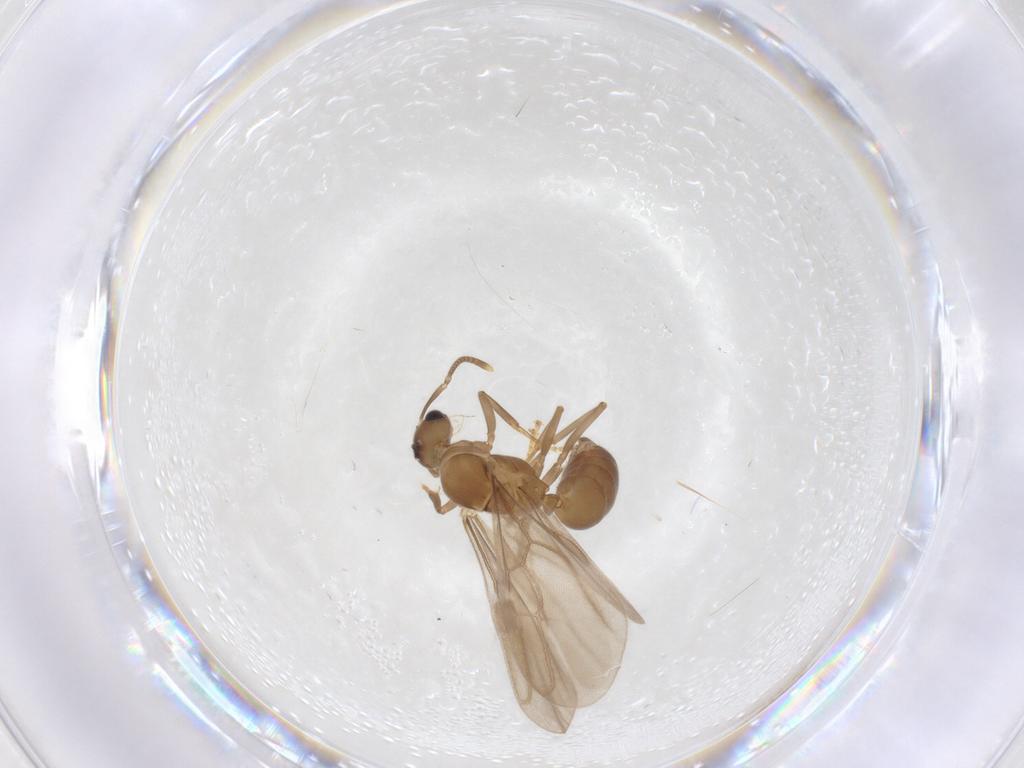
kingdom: Animalia
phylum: Arthropoda
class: Insecta
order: Hymenoptera
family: Formicidae
